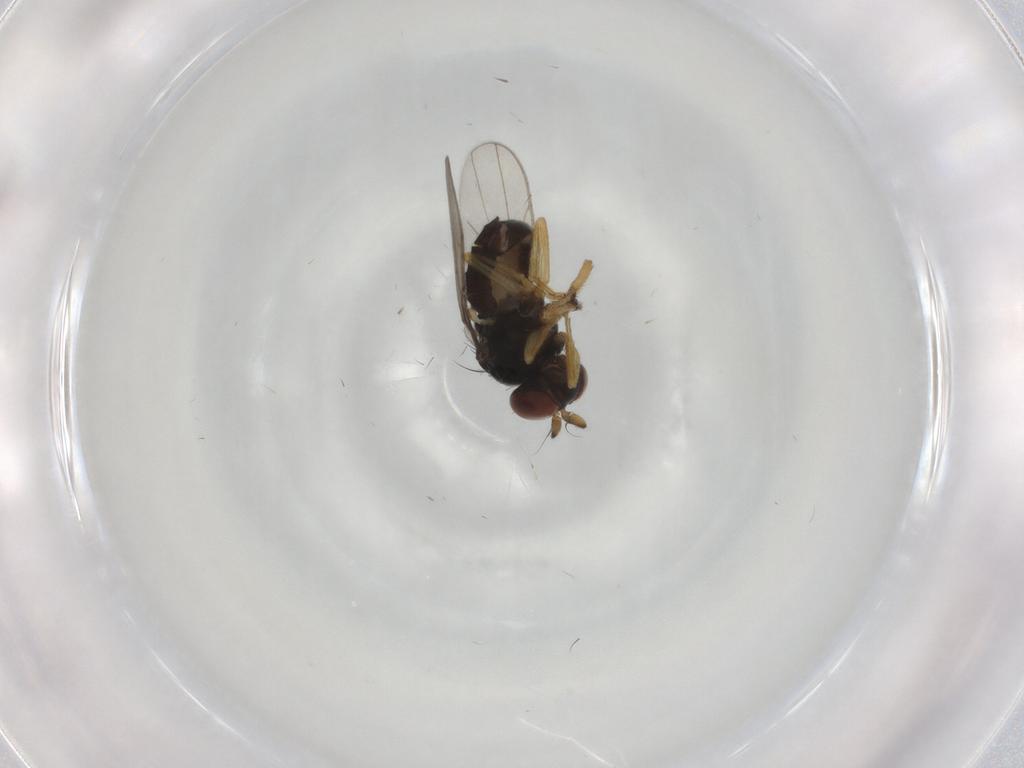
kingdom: Animalia
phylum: Arthropoda
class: Insecta
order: Diptera
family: Ephydridae
